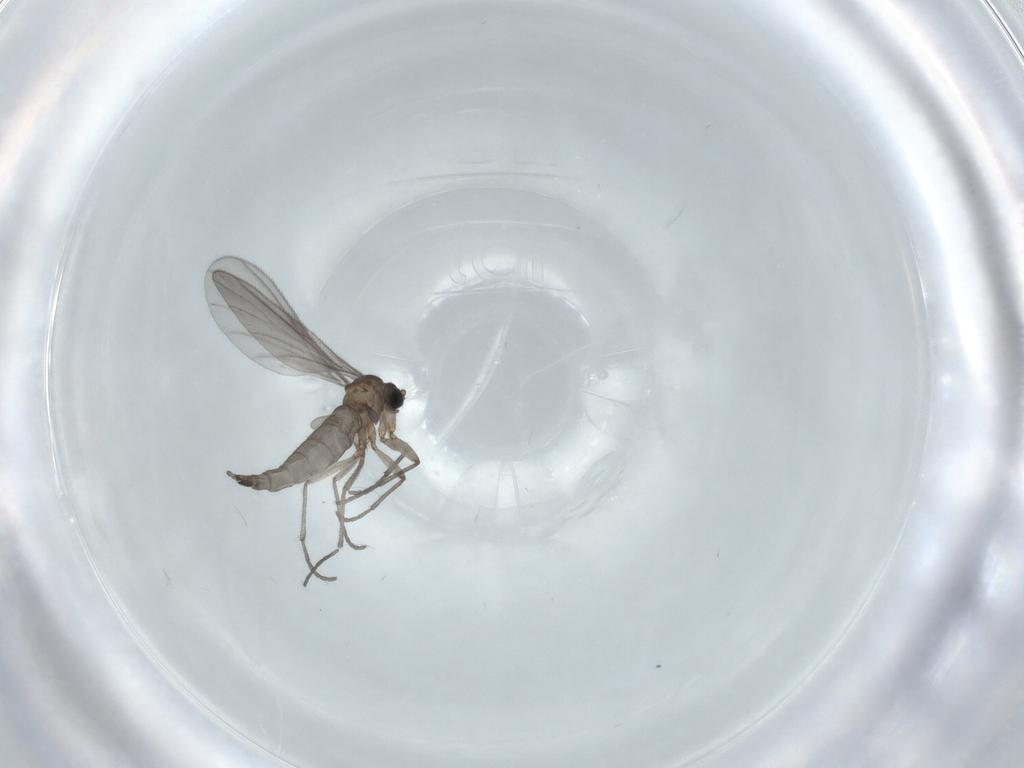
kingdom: Animalia
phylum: Arthropoda
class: Insecta
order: Diptera
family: Sciaridae
